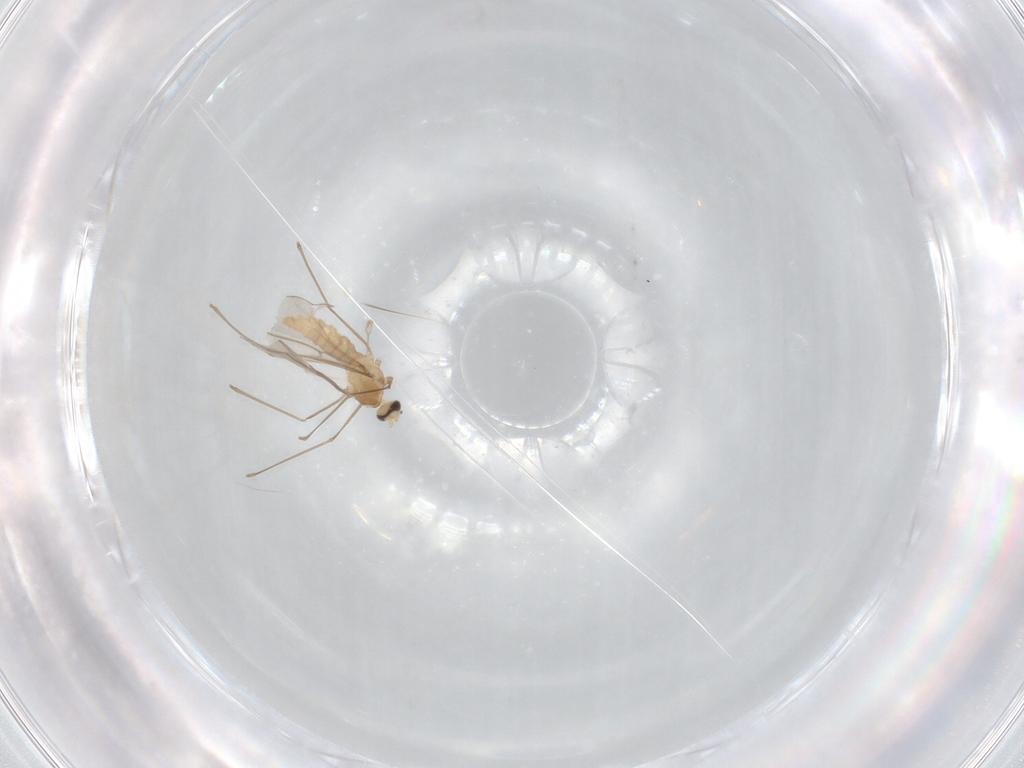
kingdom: Animalia
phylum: Arthropoda
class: Insecta
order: Diptera
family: Cecidomyiidae
